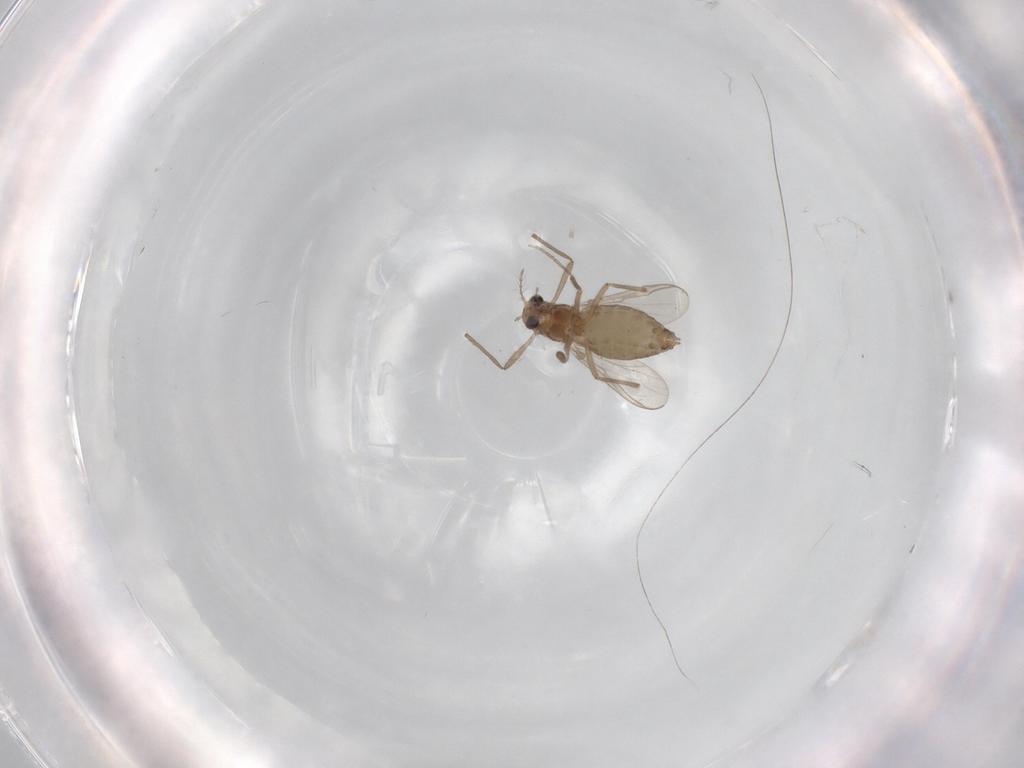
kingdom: Animalia
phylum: Arthropoda
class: Insecta
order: Diptera
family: Chironomidae
